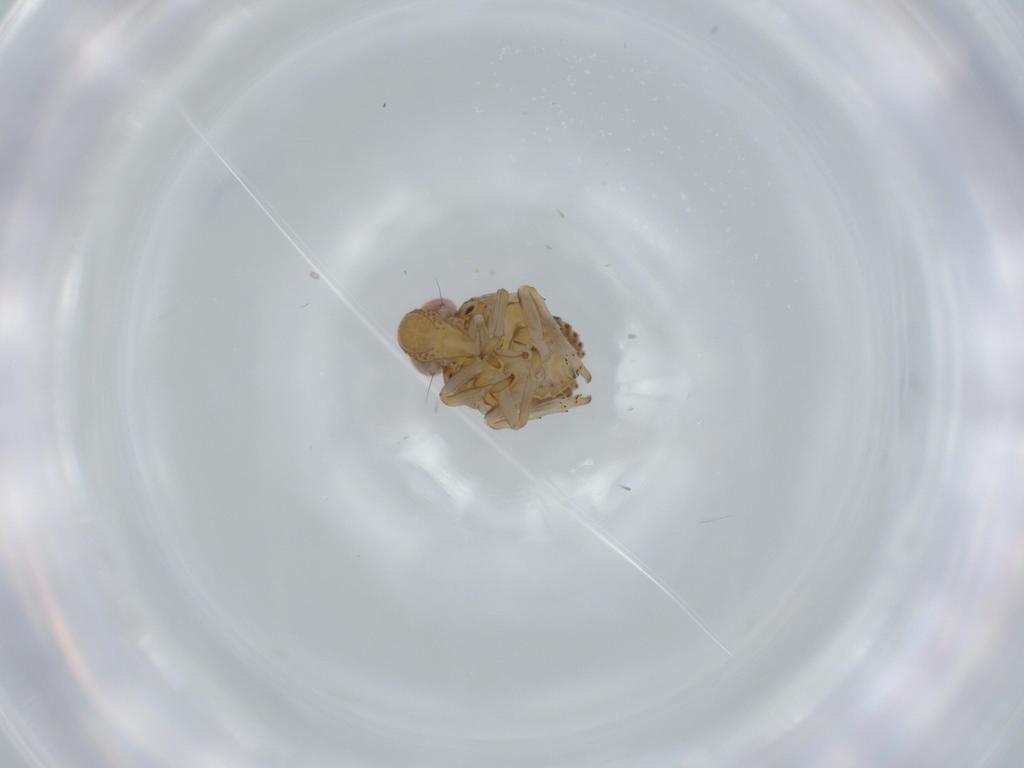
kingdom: Animalia
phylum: Arthropoda
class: Insecta
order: Hemiptera
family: Issidae
